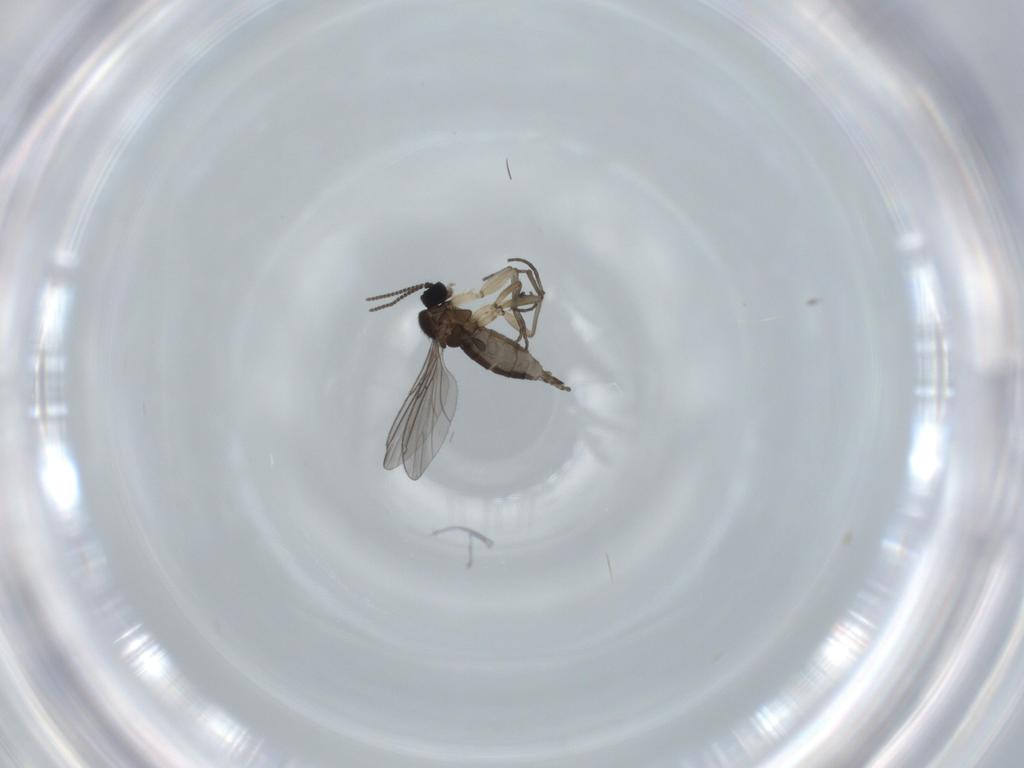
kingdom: Animalia
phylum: Arthropoda
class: Insecta
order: Diptera
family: Sciaridae
